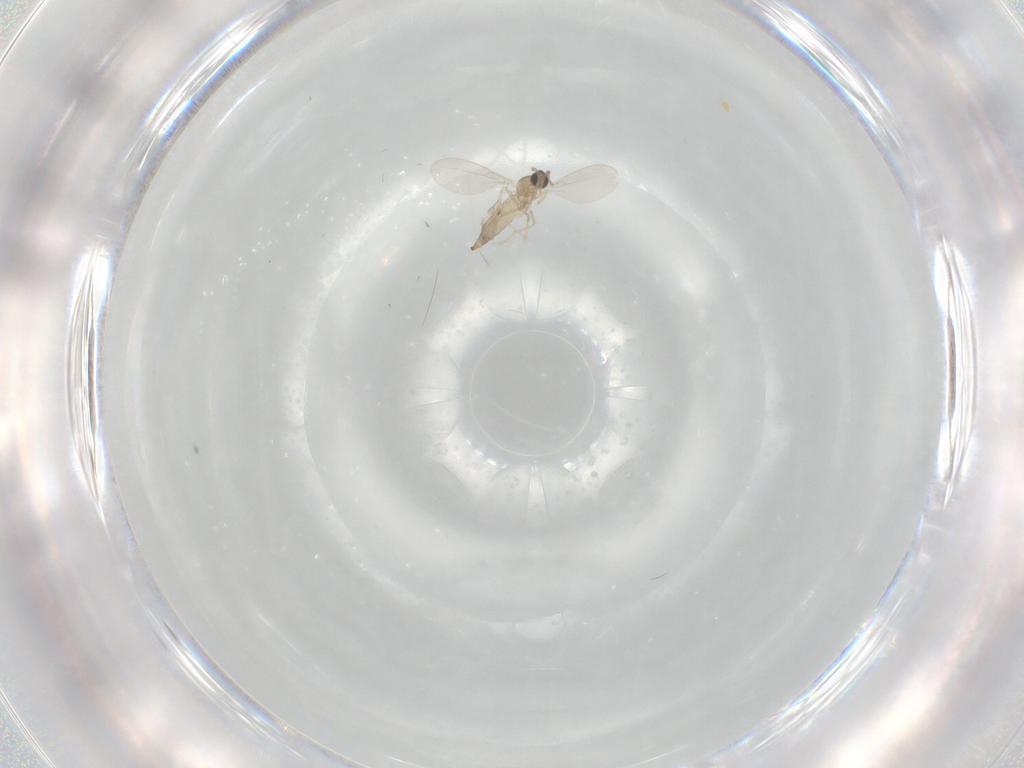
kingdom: Animalia
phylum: Arthropoda
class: Insecta
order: Diptera
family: Cecidomyiidae
